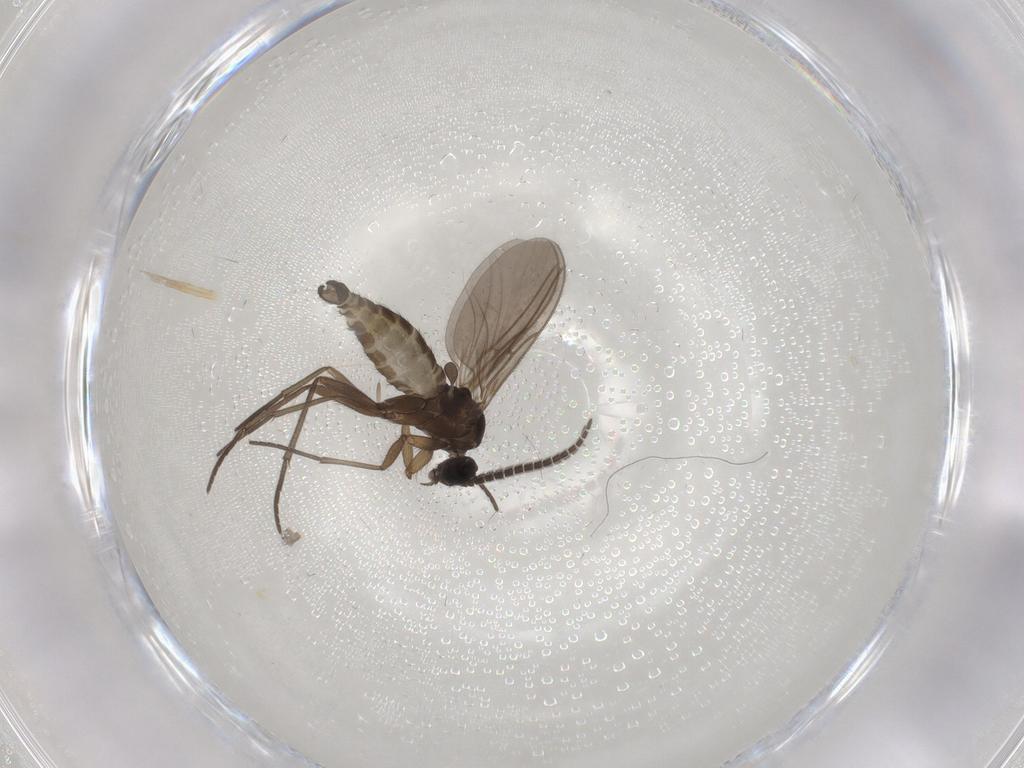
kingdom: Animalia
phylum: Arthropoda
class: Insecta
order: Diptera
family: Sciaridae
